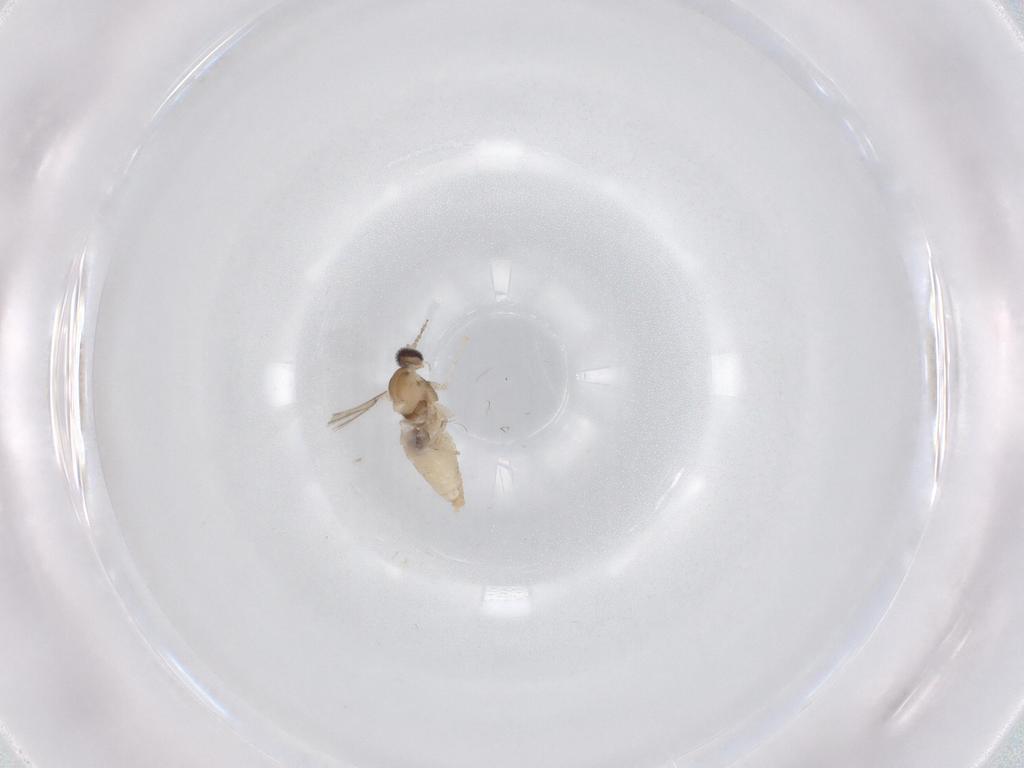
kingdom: Animalia
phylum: Arthropoda
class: Insecta
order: Diptera
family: Cecidomyiidae
